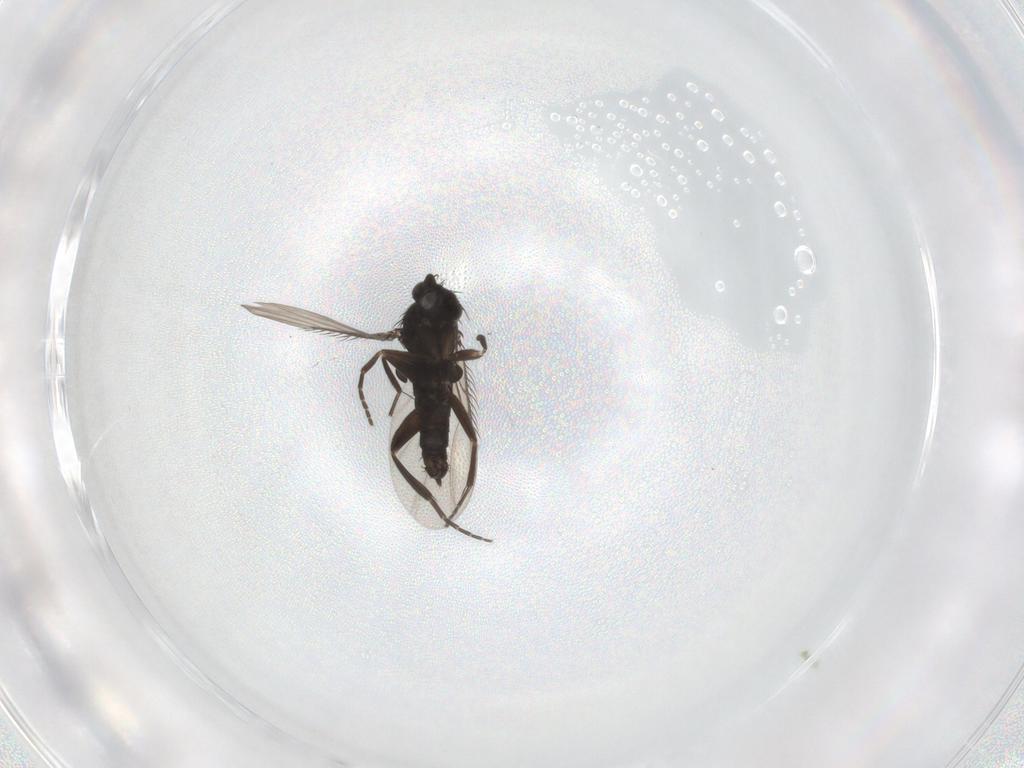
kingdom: Animalia
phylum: Arthropoda
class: Insecta
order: Diptera
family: Phoridae
